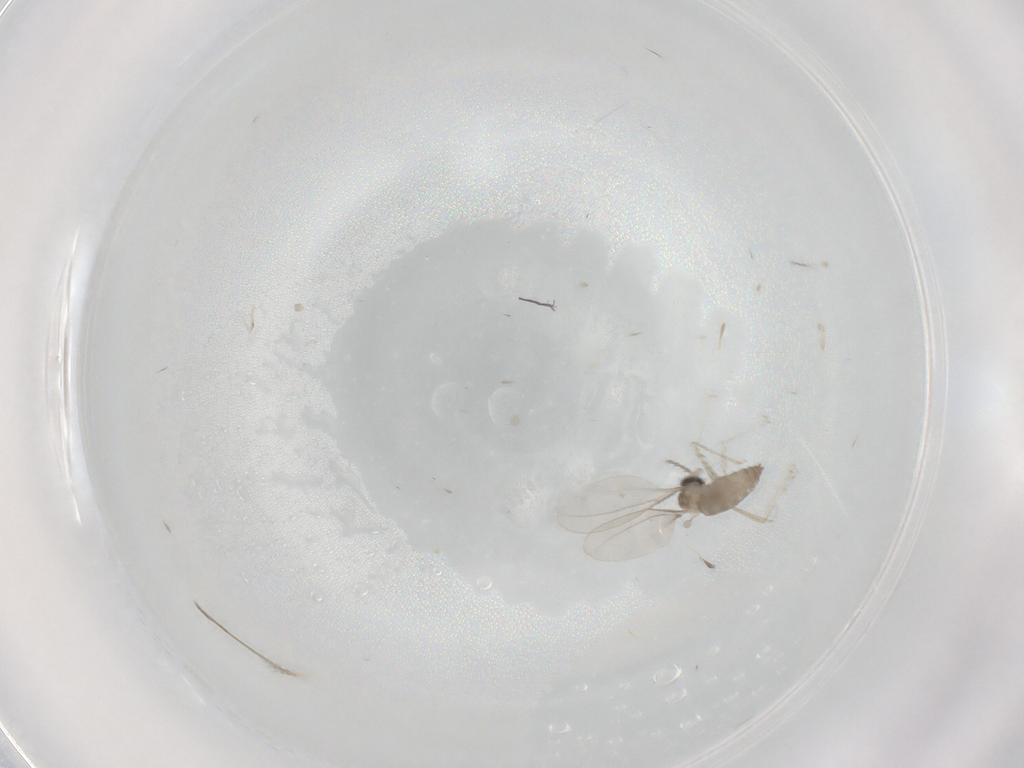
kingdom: Animalia
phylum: Arthropoda
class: Insecta
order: Diptera
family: Cecidomyiidae
